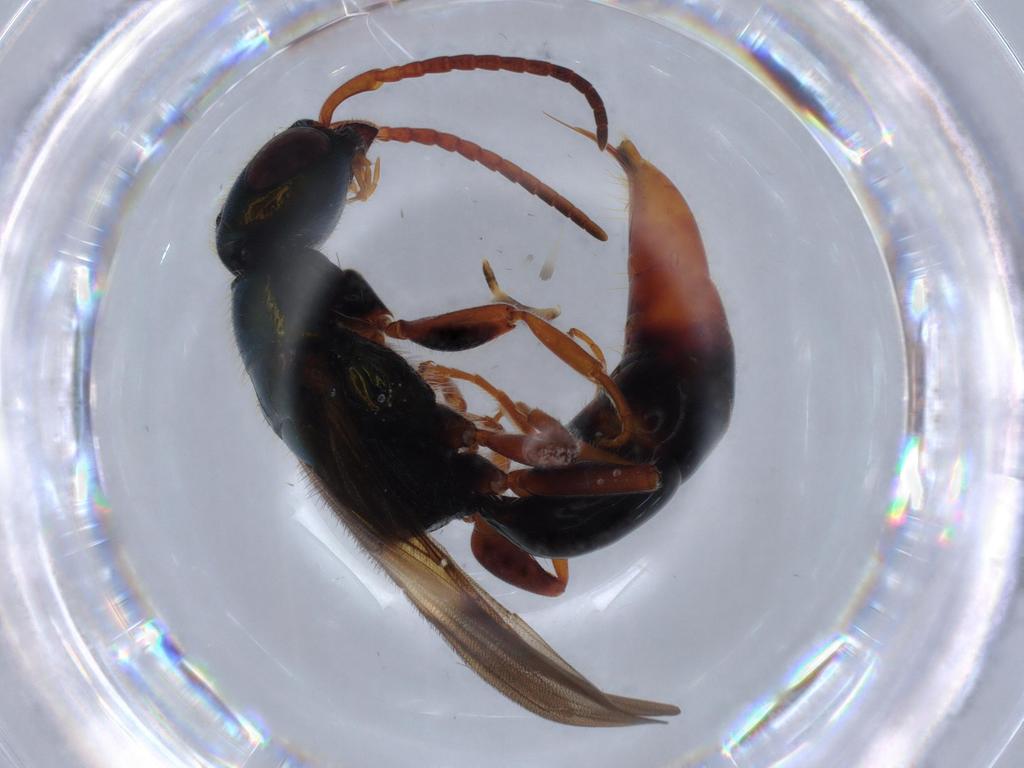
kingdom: Animalia
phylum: Arthropoda
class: Insecta
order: Hymenoptera
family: Bethylidae
